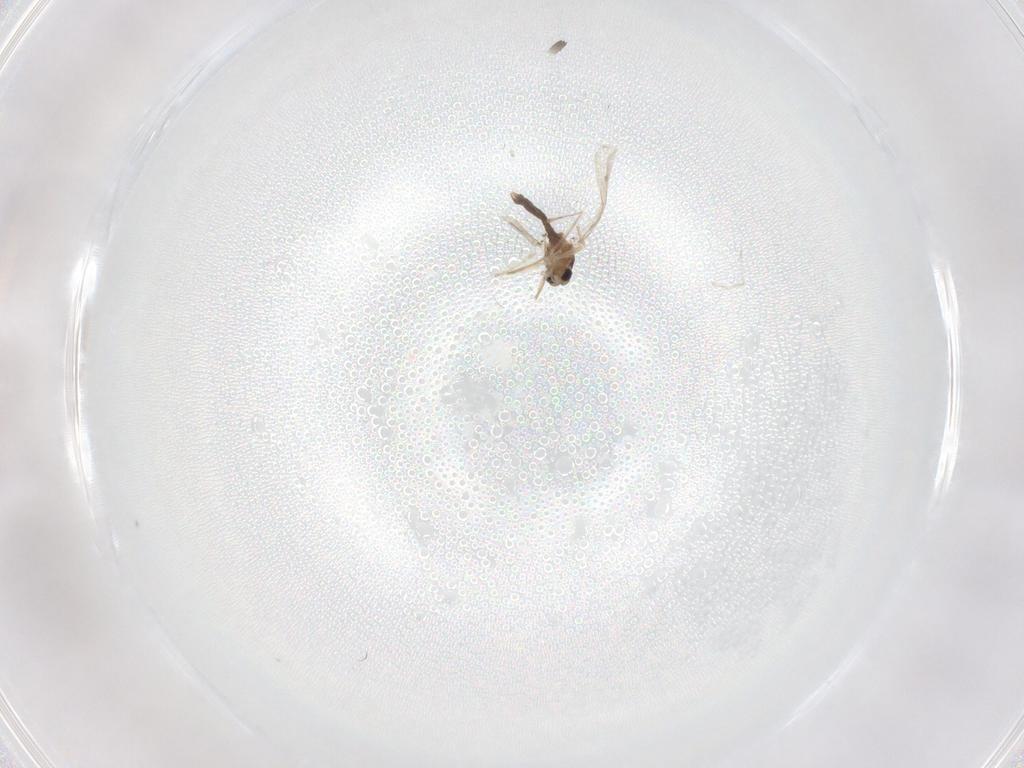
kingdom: Animalia
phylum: Arthropoda
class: Insecta
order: Diptera
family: Chironomidae
